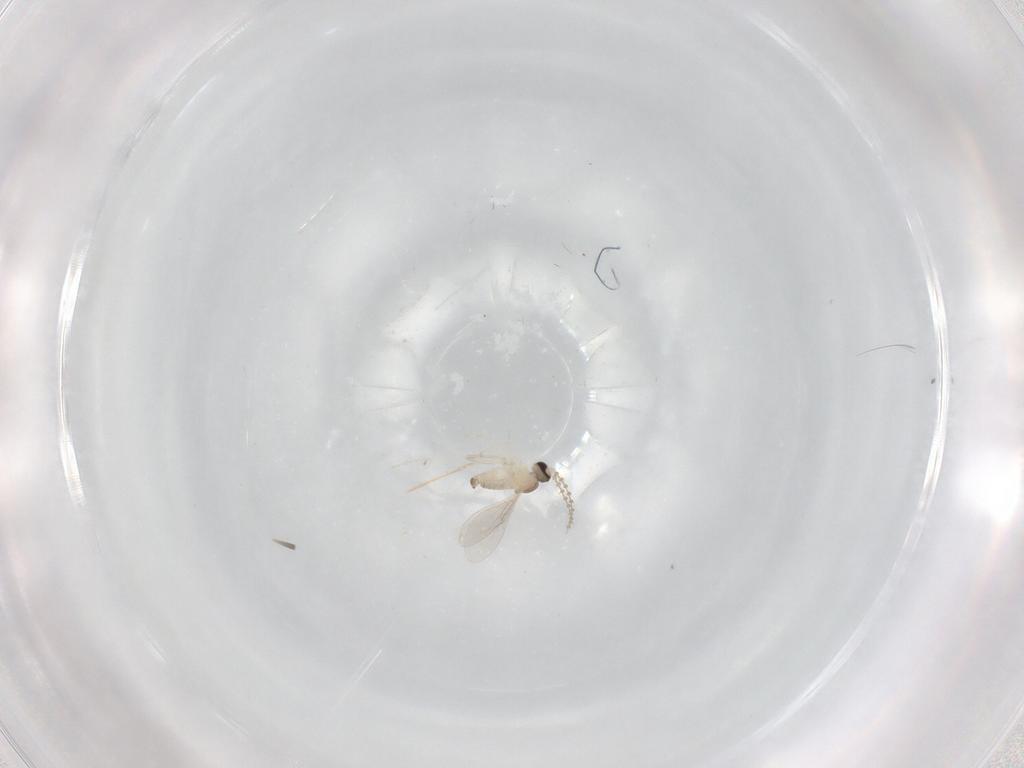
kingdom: Animalia
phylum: Arthropoda
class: Insecta
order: Diptera
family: Cecidomyiidae
